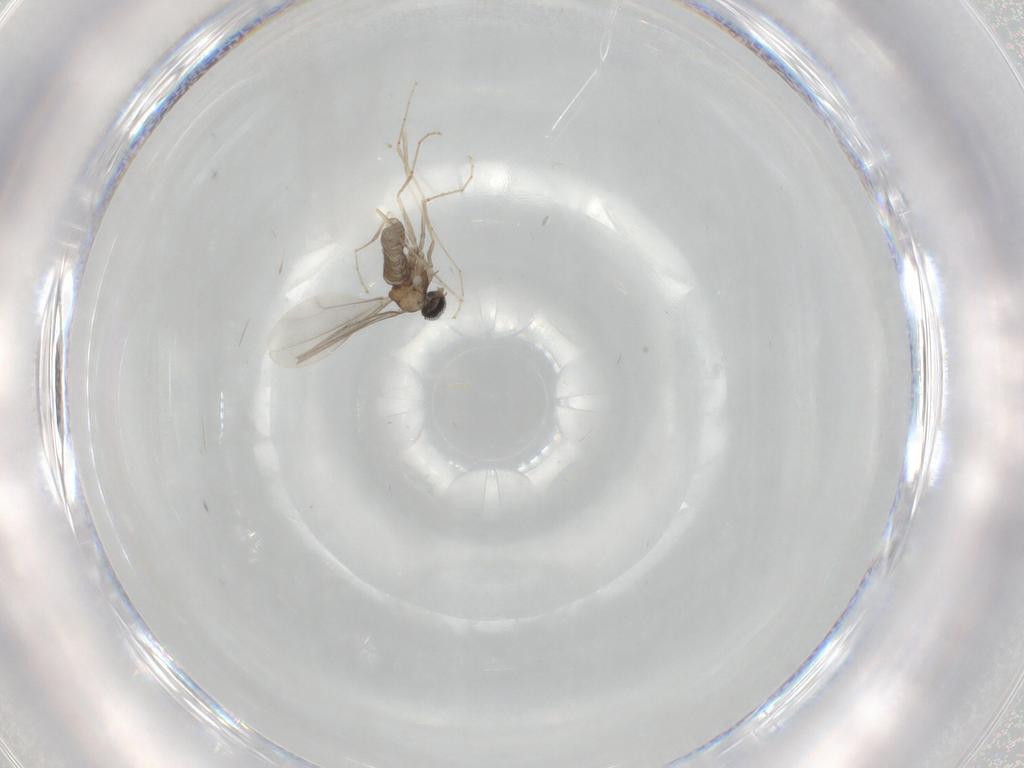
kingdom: Animalia
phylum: Arthropoda
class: Insecta
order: Diptera
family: Cecidomyiidae
